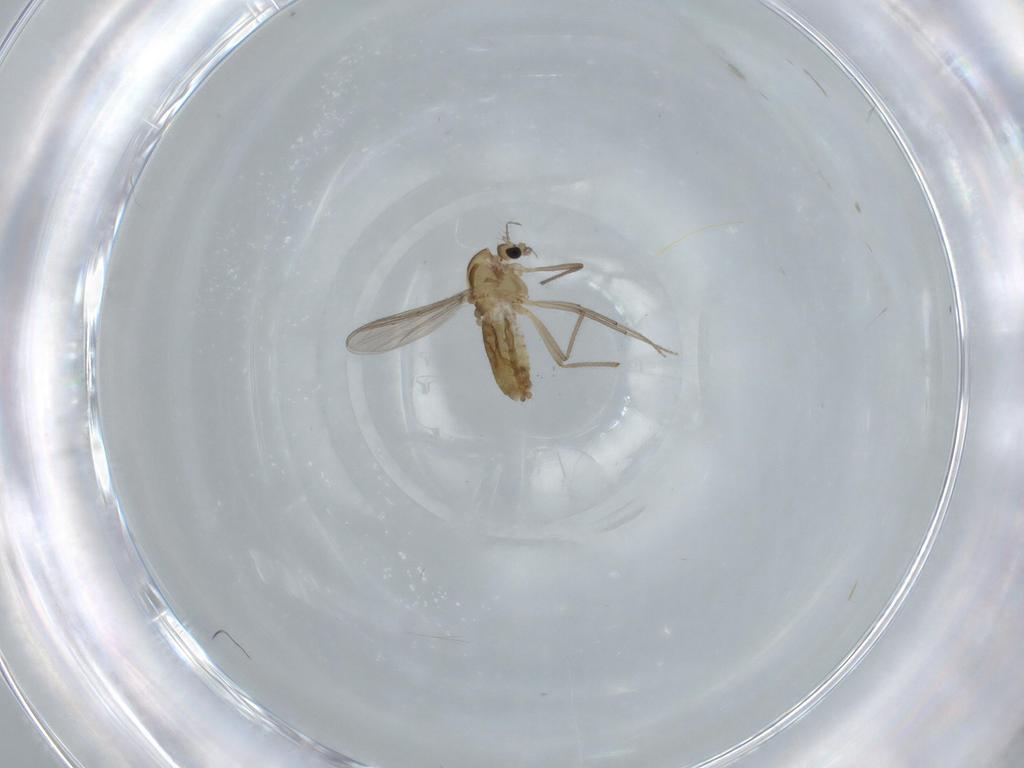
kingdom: Animalia
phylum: Arthropoda
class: Insecta
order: Diptera
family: Chironomidae
